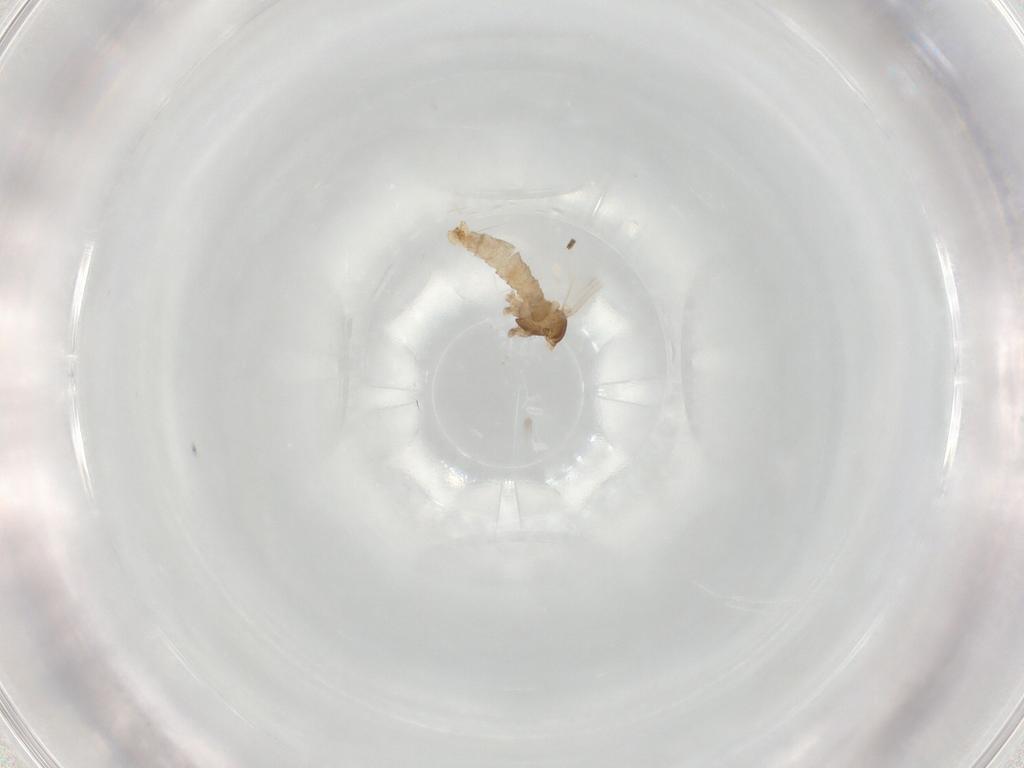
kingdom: Animalia
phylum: Arthropoda
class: Insecta
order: Diptera
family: Cecidomyiidae
